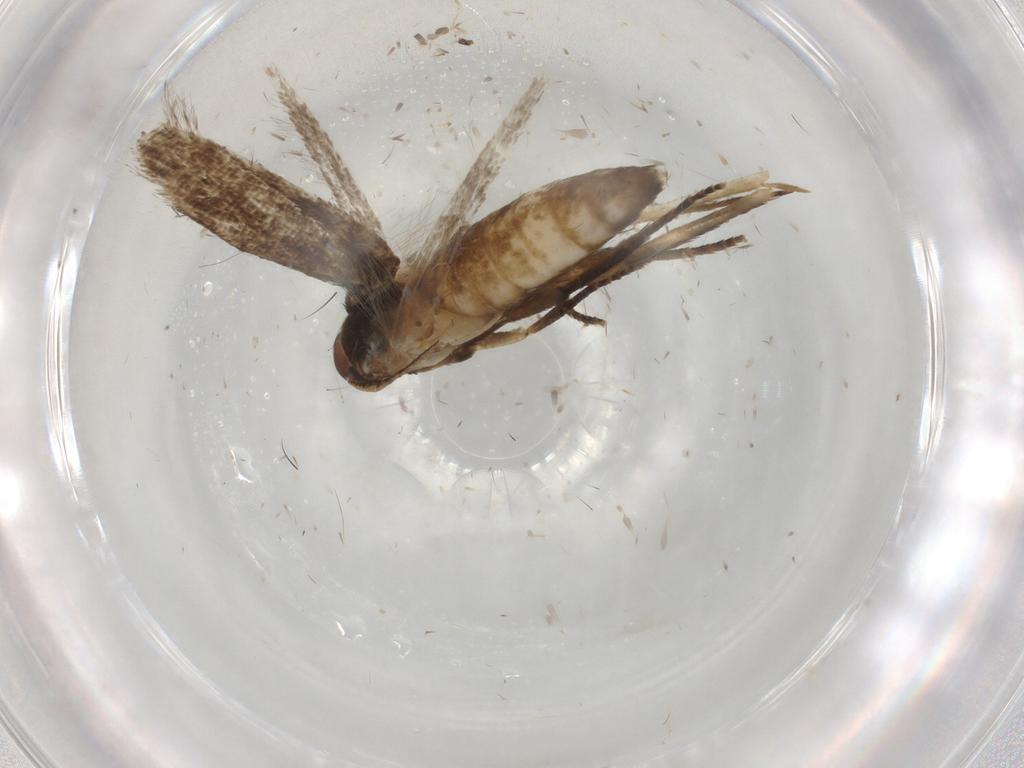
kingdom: Animalia
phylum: Arthropoda
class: Insecta
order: Lepidoptera
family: Cosmopterigidae
